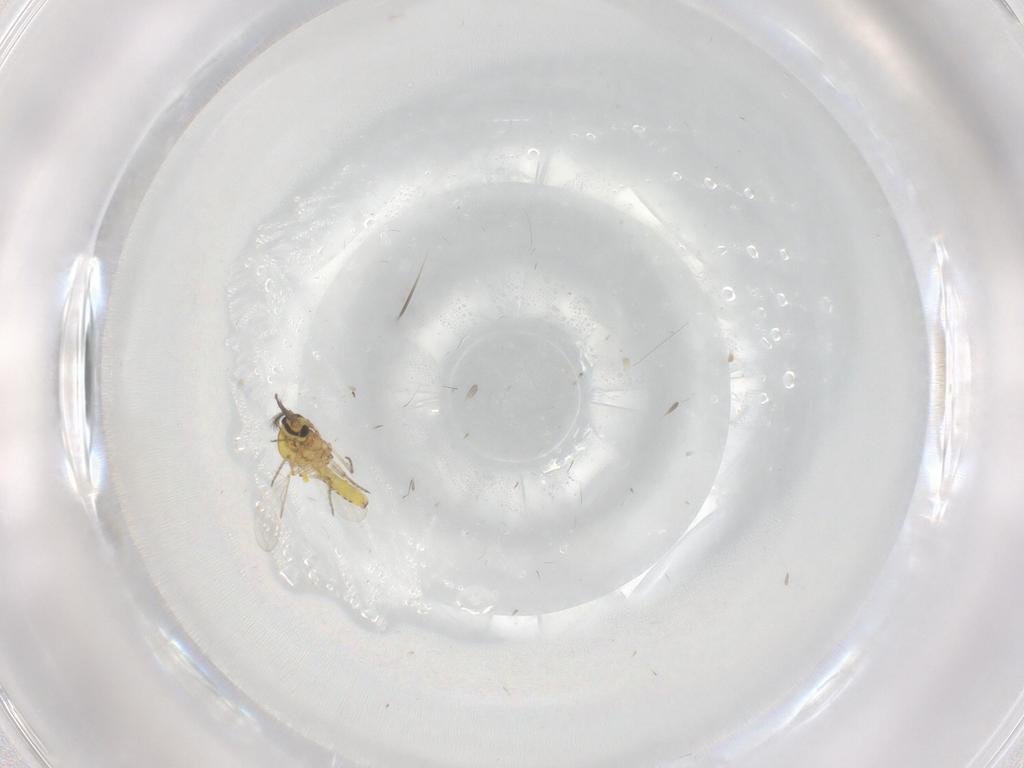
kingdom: Animalia
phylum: Arthropoda
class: Insecta
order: Diptera
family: Ceratopogonidae
